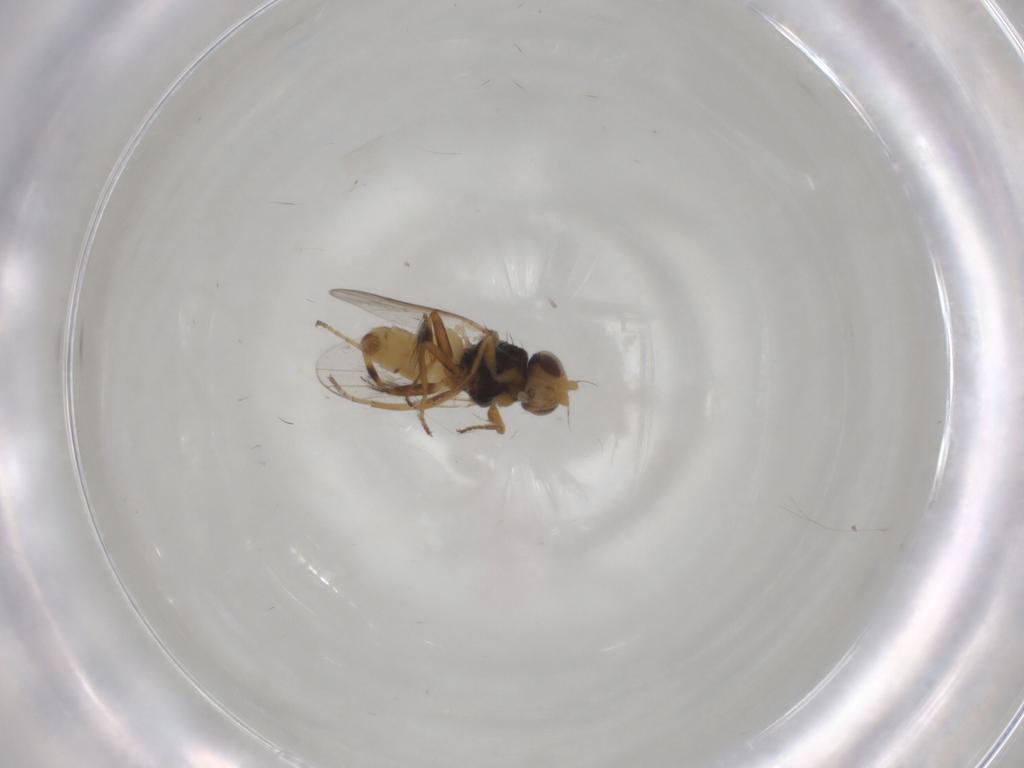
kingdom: Animalia
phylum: Arthropoda
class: Insecta
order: Diptera
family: Chloropidae
